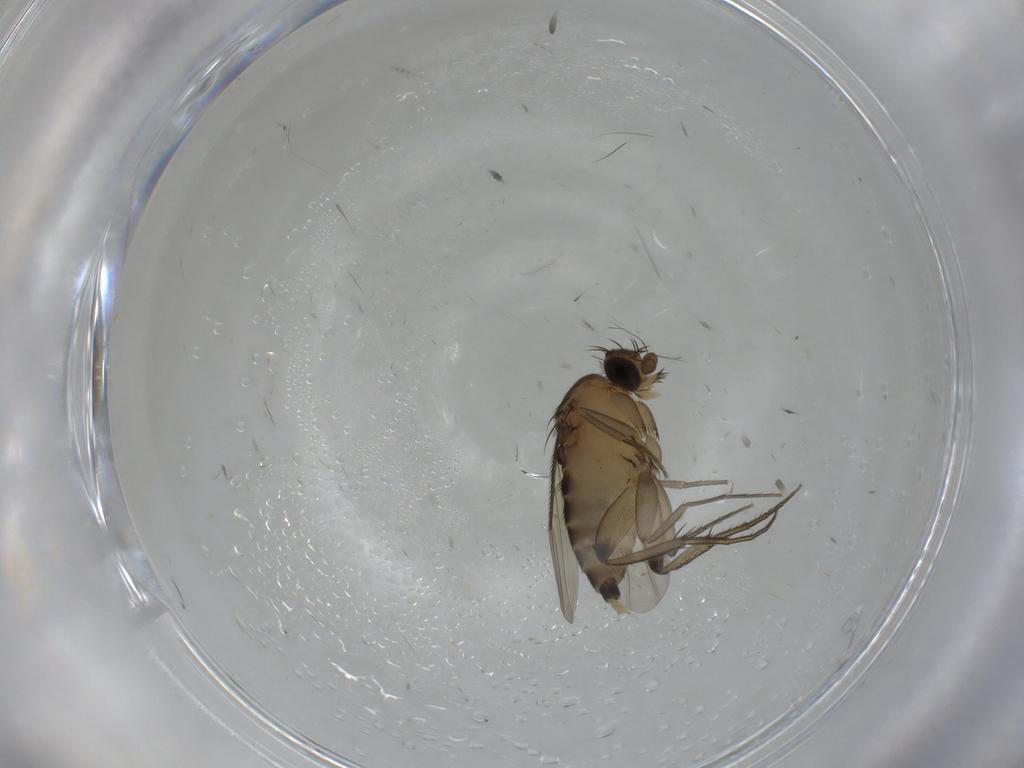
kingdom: Animalia
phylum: Arthropoda
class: Insecta
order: Diptera
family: Phoridae
